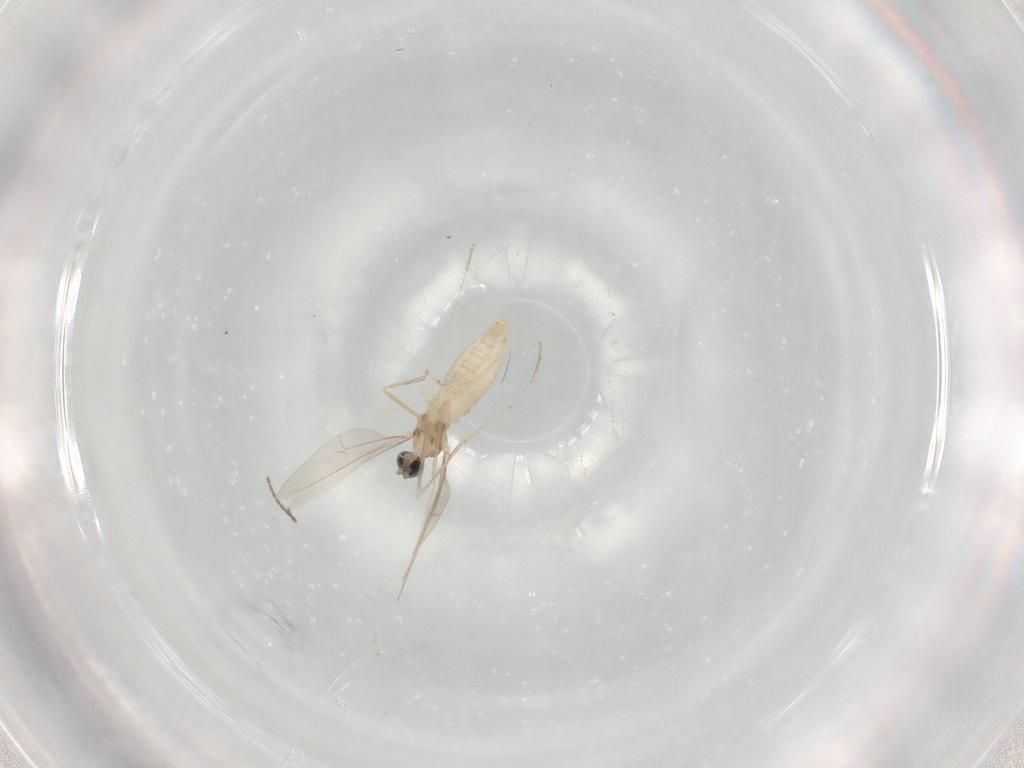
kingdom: Animalia
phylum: Arthropoda
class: Insecta
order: Diptera
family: Cecidomyiidae
